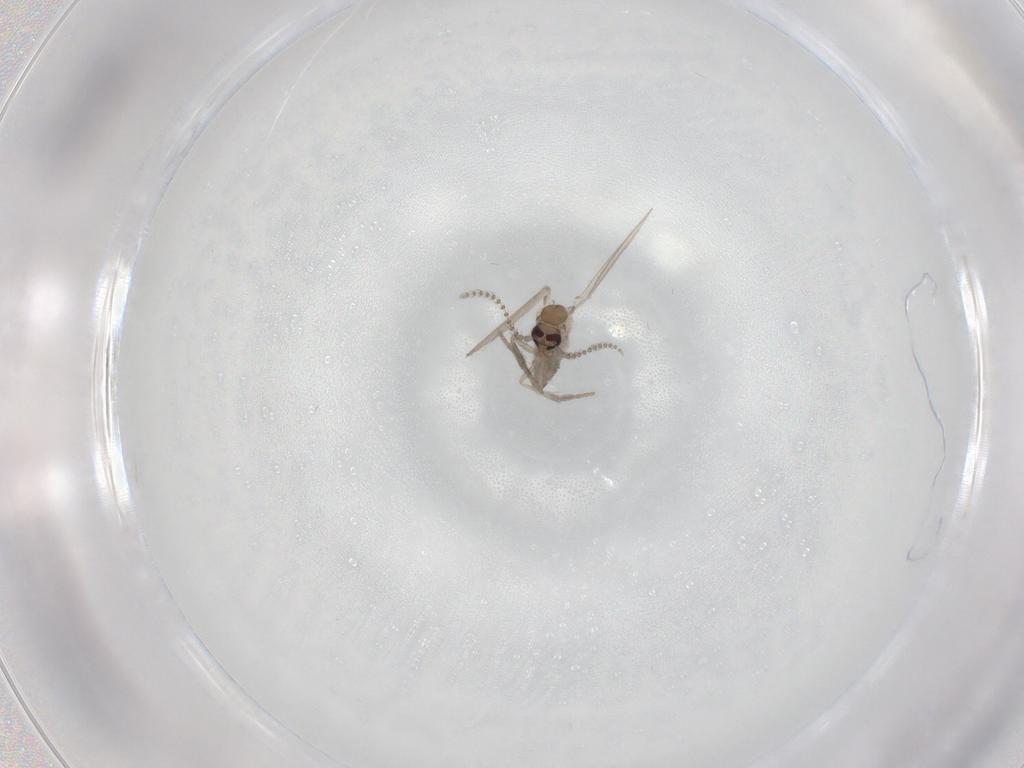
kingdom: Animalia
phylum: Arthropoda
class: Insecta
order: Diptera
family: Psychodidae
